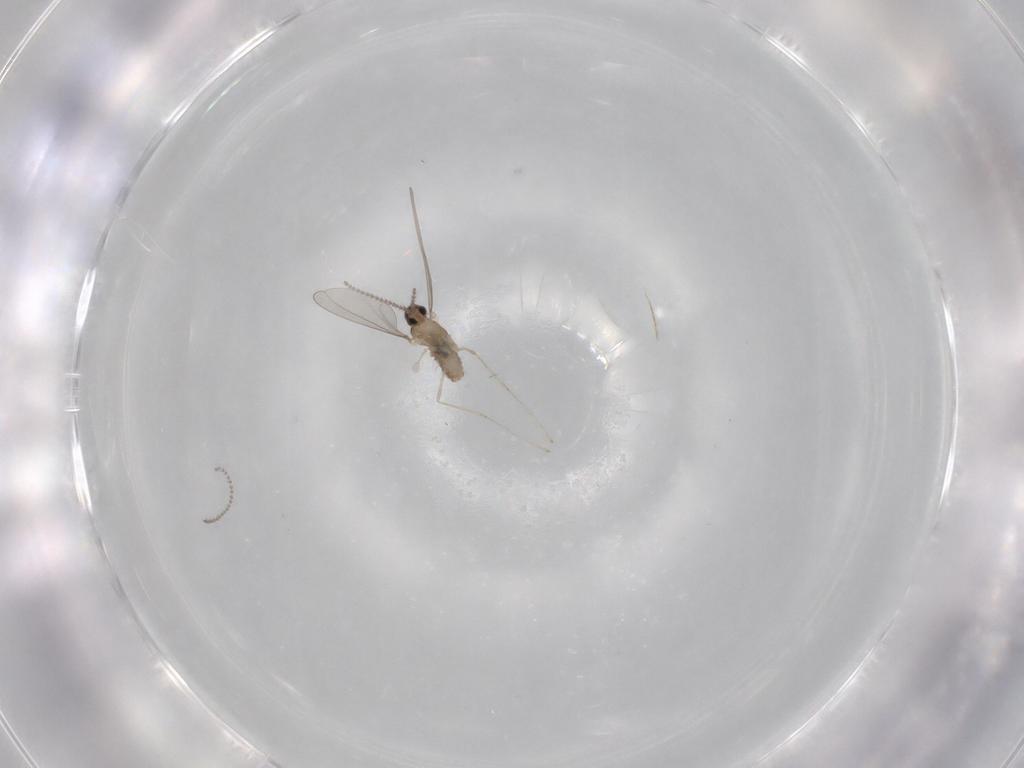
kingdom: Animalia
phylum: Arthropoda
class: Insecta
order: Diptera
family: Cecidomyiidae
